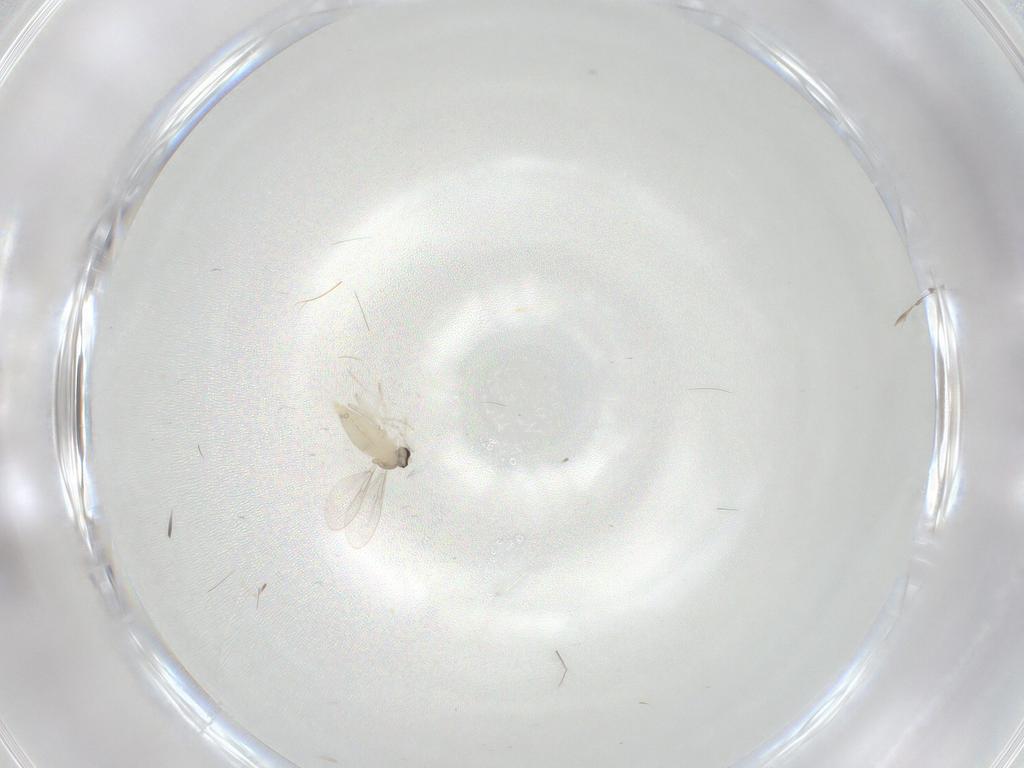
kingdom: Animalia
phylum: Arthropoda
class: Insecta
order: Diptera
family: Cecidomyiidae
